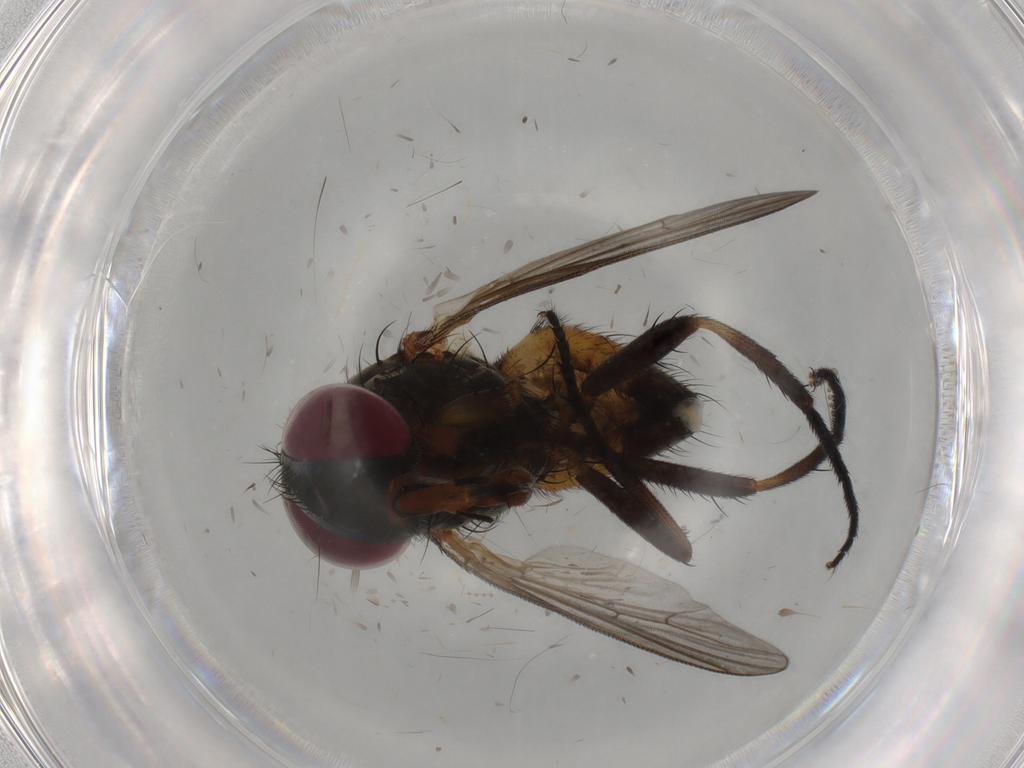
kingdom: Animalia
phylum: Arthropoda
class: Insecta
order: Diptera
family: Fannia
